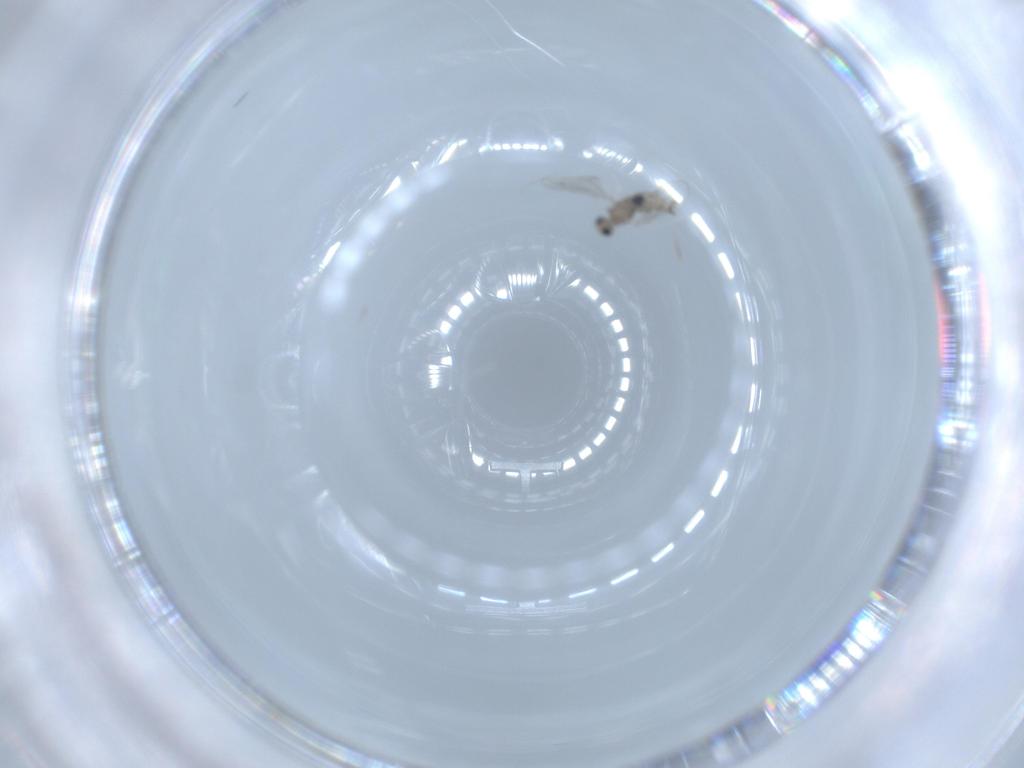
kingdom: Animalia
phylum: Arthropoda
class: Insecta
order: Diptera
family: Cecidomyiidae
